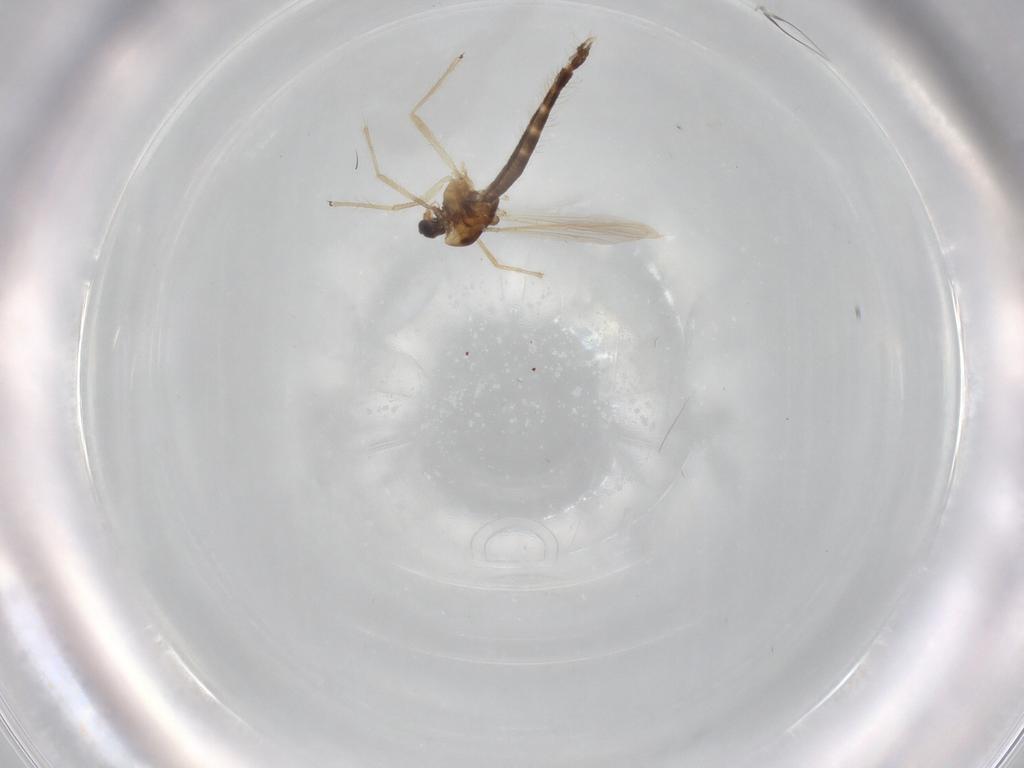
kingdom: Animalia
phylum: Arthropoda
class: Insecta
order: Diptera
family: Chironomidae
